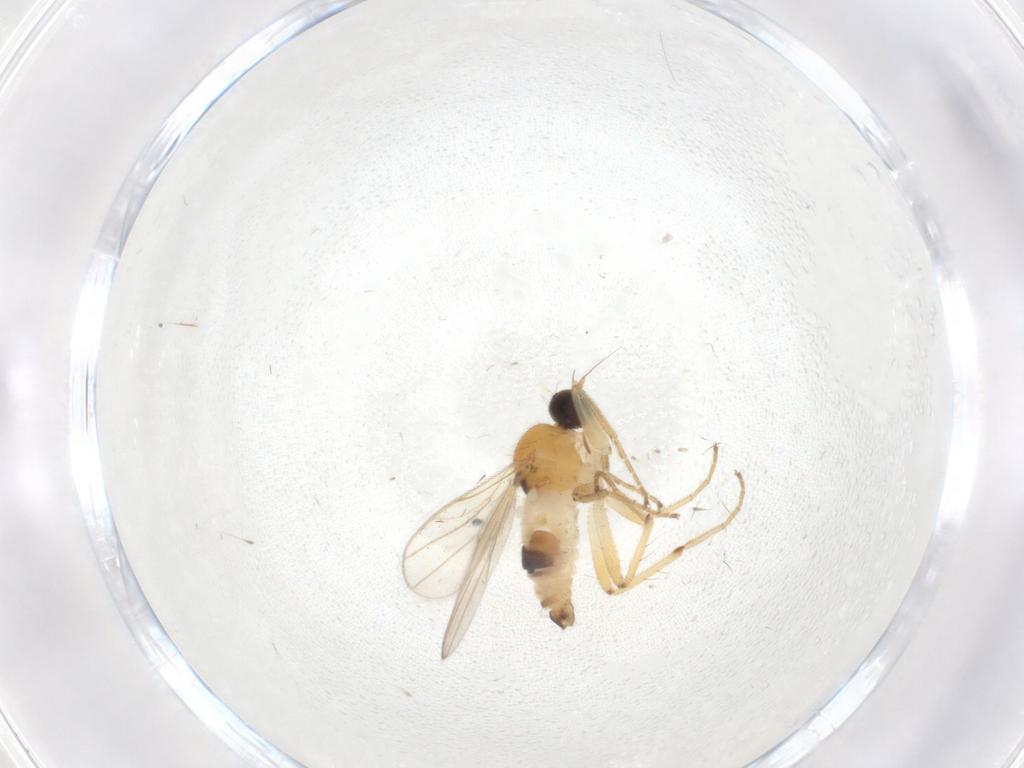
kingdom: Animalia
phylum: Arthropoda
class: Insecta
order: Diptera
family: Hybotidae
